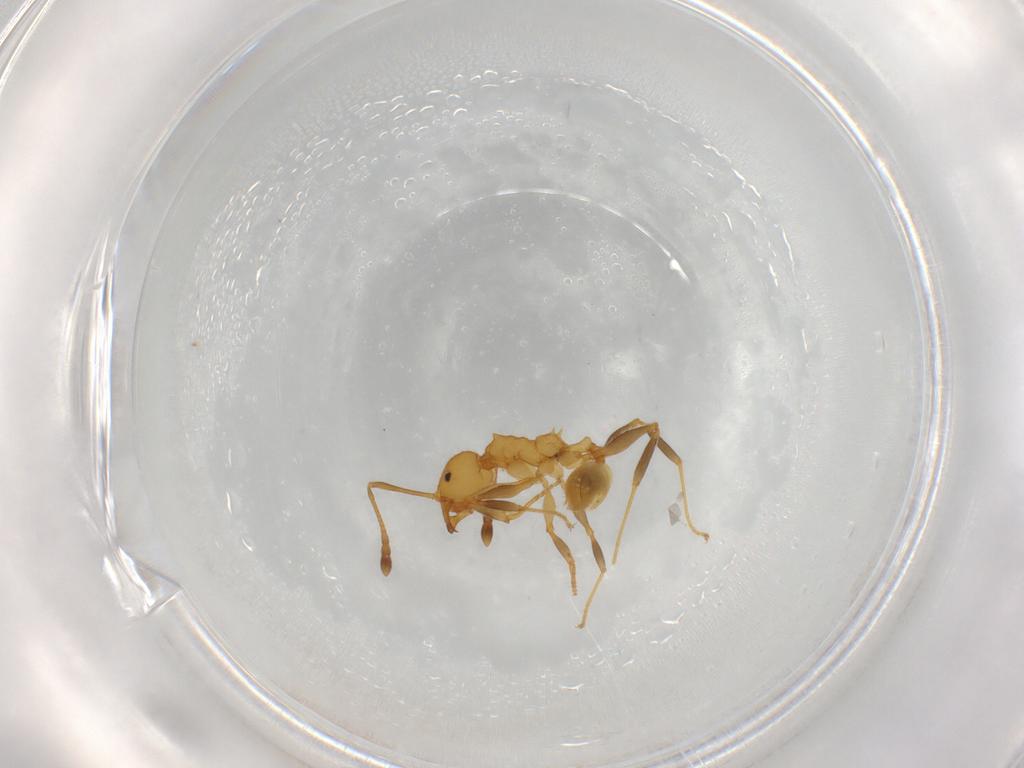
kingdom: Animalia
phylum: Arthropoda
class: Insecta
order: Hymenoptera
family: Formicidae
